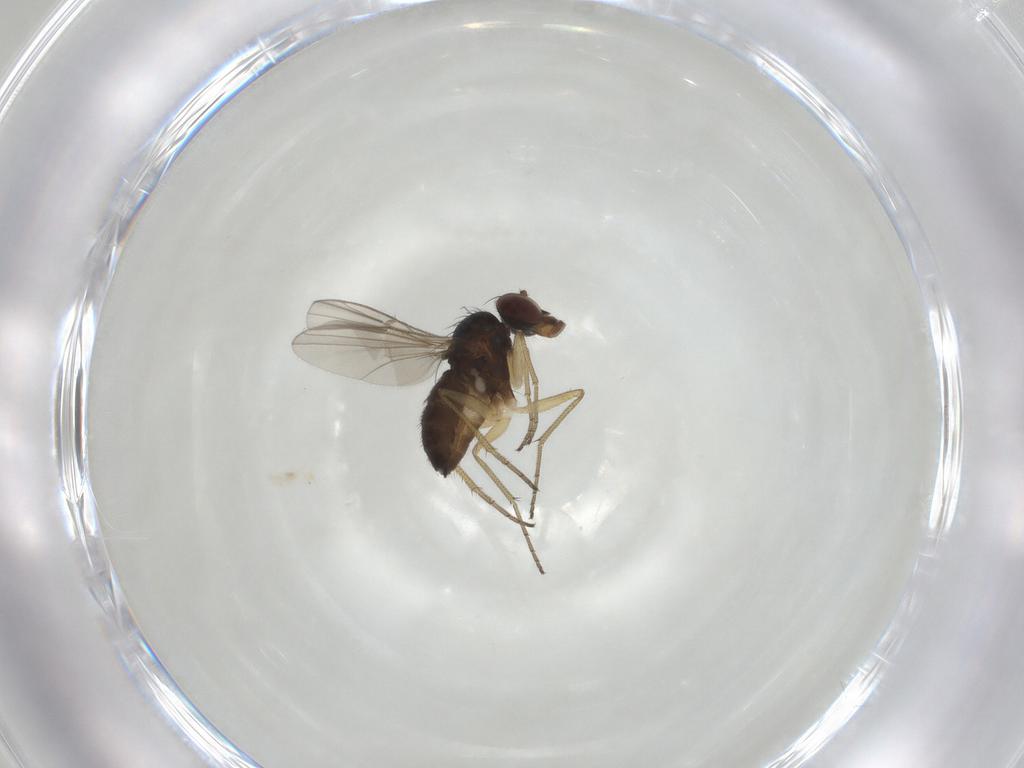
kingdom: Animalia
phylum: Arthropoda
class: Insecta
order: Diptera
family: Dolichopodidae
